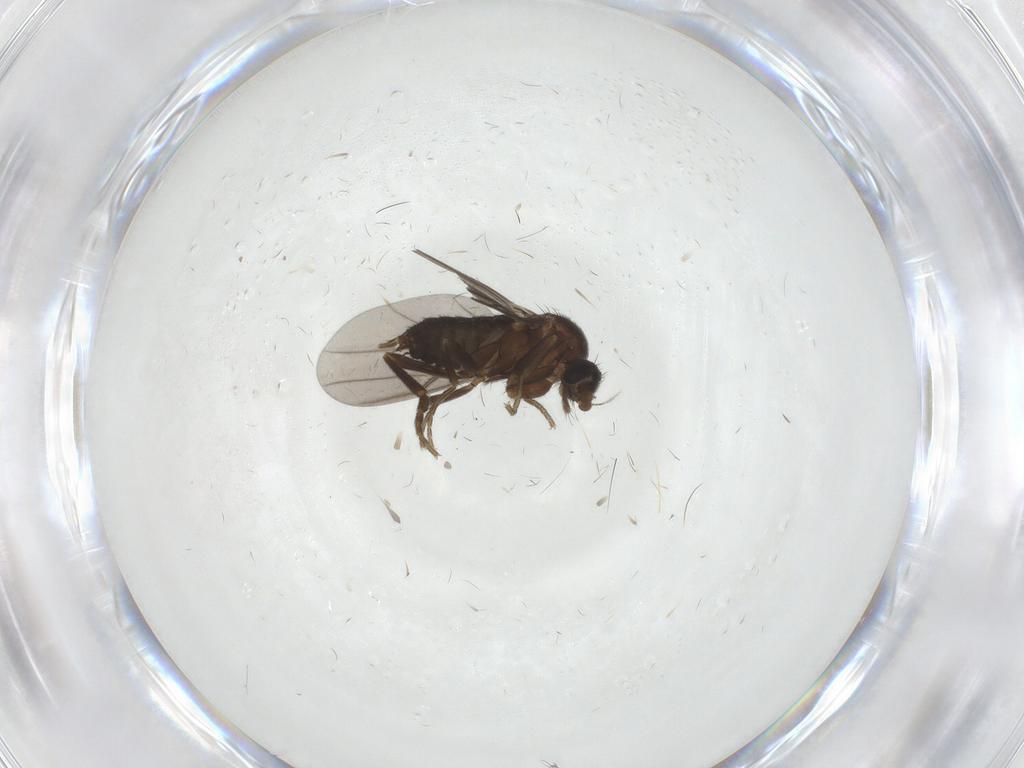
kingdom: Animalia
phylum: Arthropoda
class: Insecta
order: Diptera
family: Phoridae
